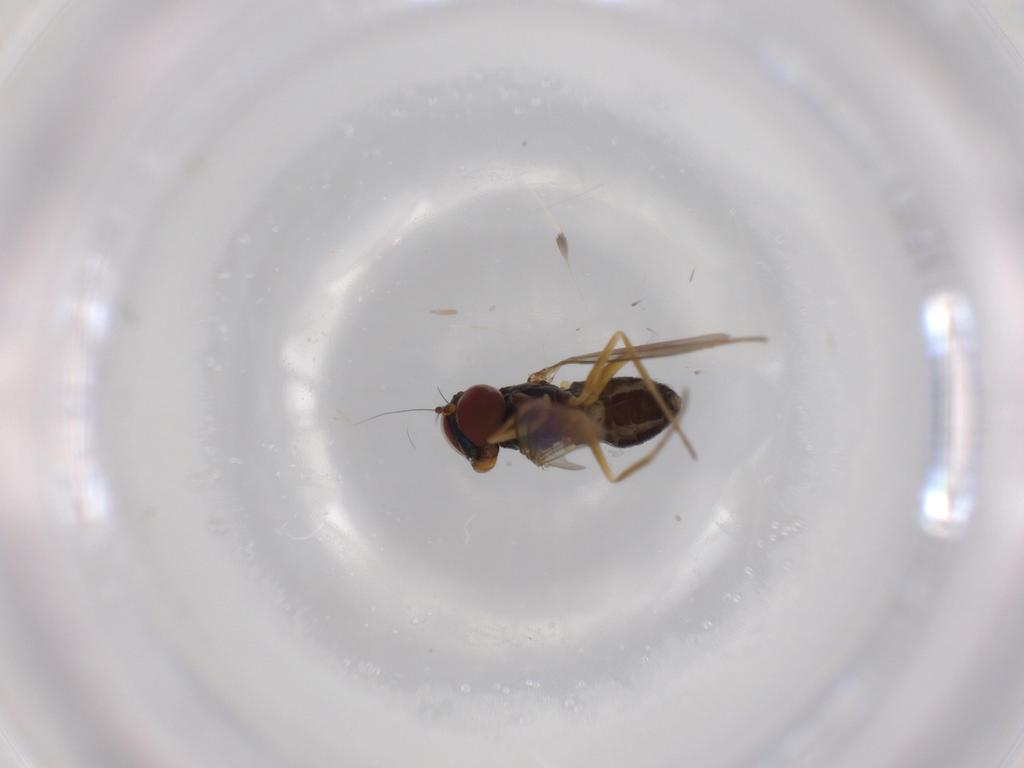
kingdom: Animalia
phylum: Arthropoda
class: Insecta
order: Diptera
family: Dolichopodidae
